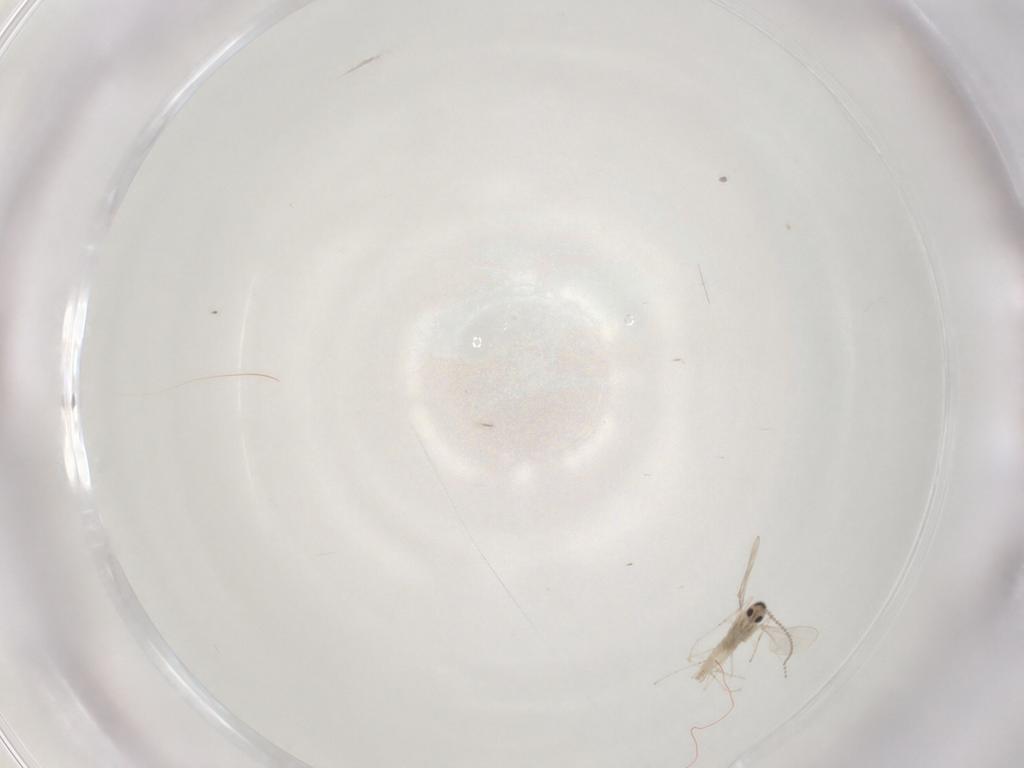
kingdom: Animalia
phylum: Arthropoda
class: Insecta
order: Diptera
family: Cecidomyiidae
